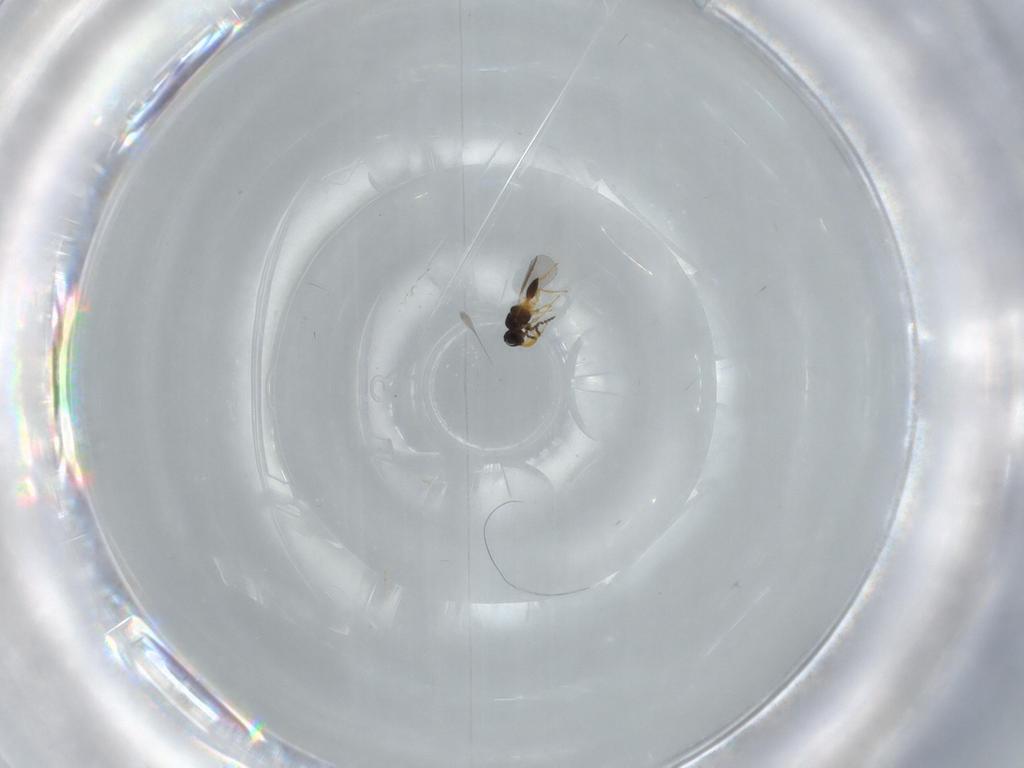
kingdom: Animalia
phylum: Arthropoda
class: Insecta
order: Hymenoptera
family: Platygastridae
